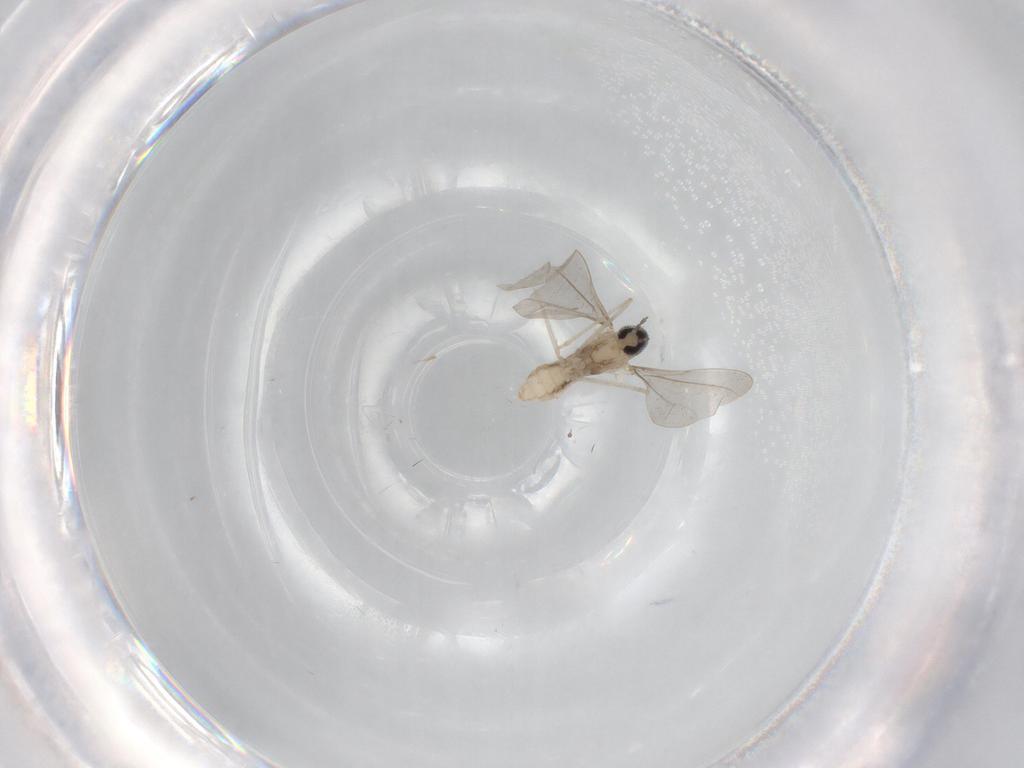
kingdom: Animalia
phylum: Arthropoda
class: Insecta
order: Diptera
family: Cecidomyiidae
